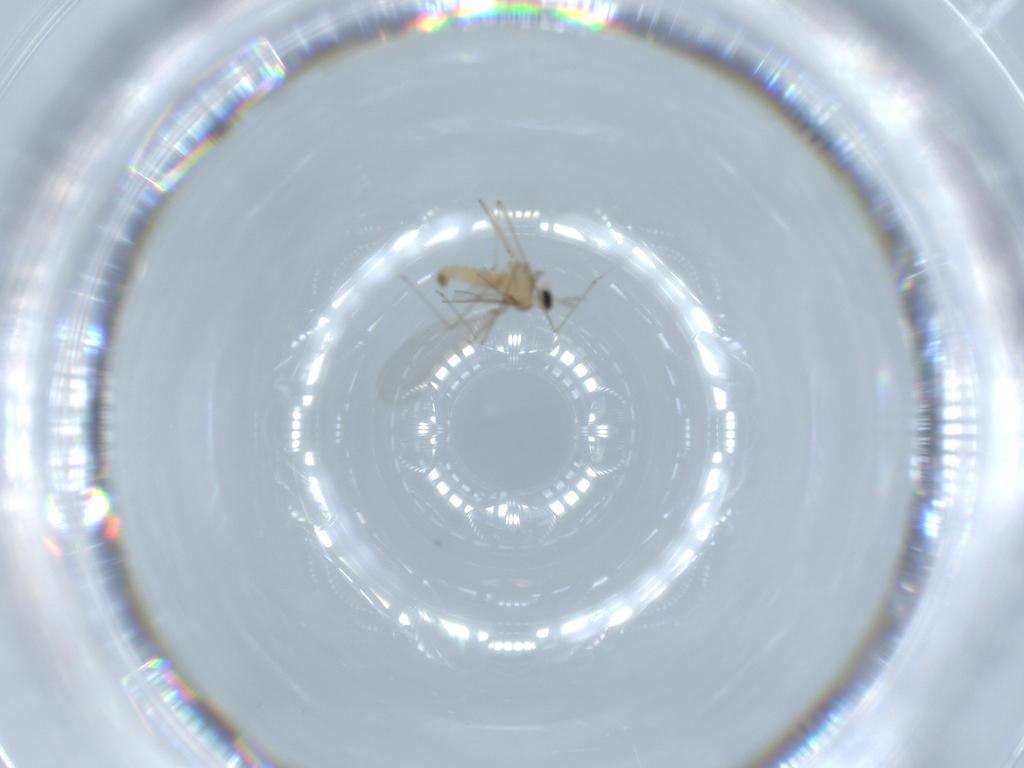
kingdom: Animalia
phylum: Arthropoda
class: Insecta
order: Diptera
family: Cecidomyiidae
